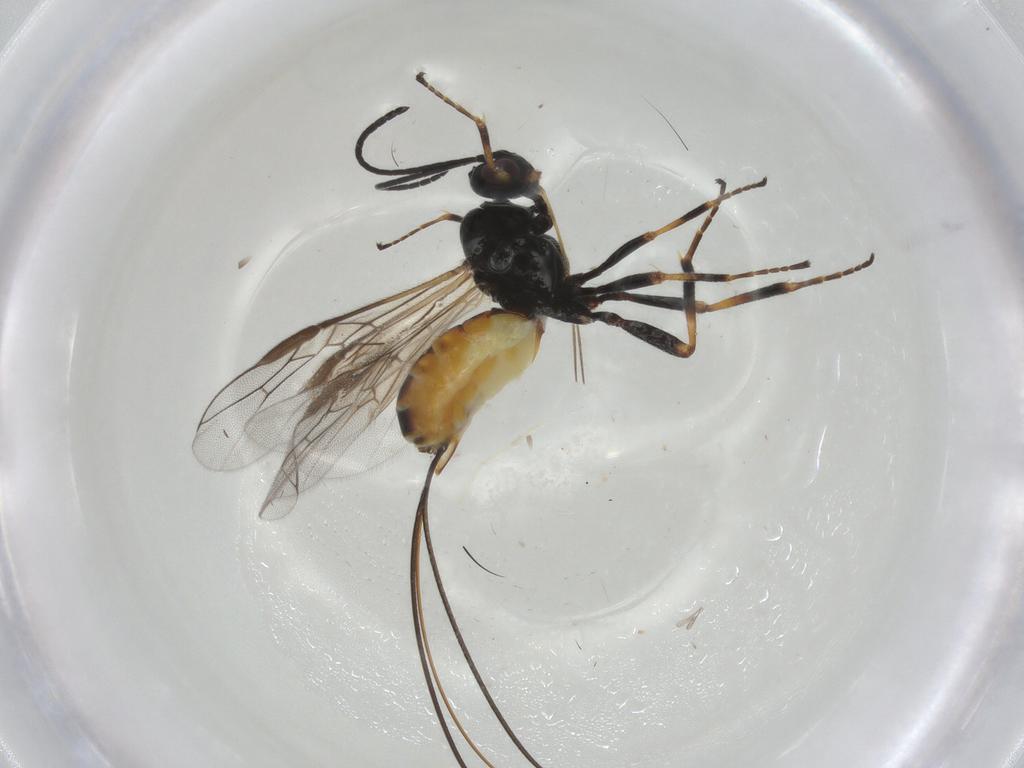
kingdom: Animalia
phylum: Arthropoda
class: Insecta
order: Hymenoptera
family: Braconidae
